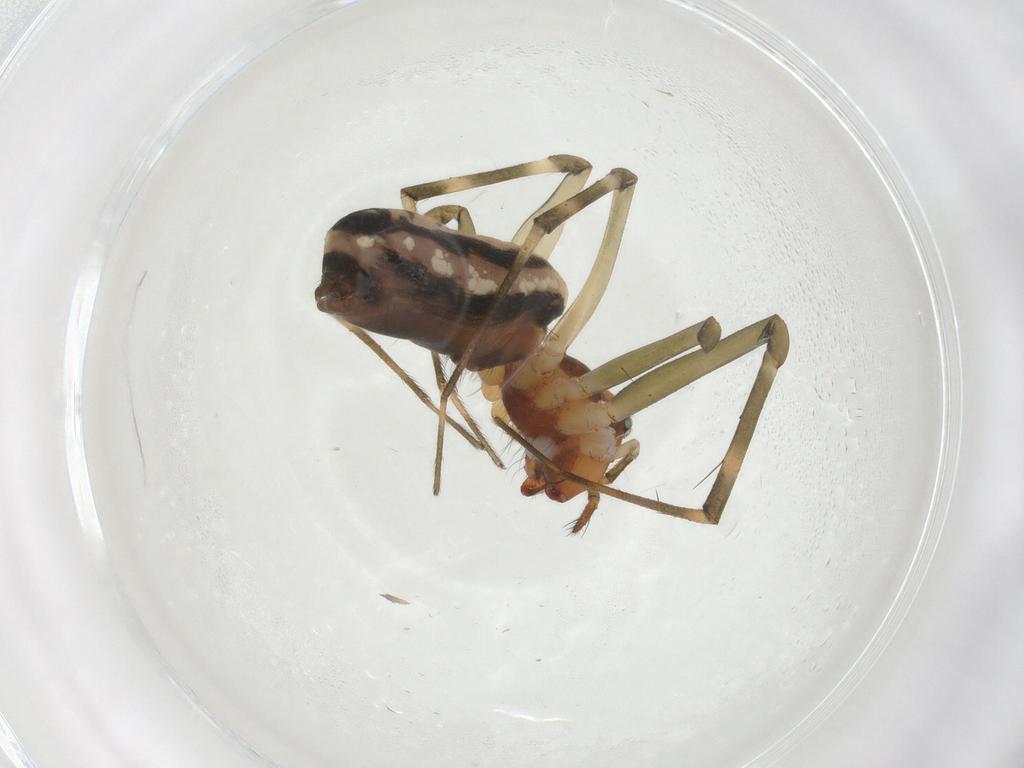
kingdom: Animalia
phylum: Arthropoda
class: Arachnida
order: Araneae
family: Linyphiidae
